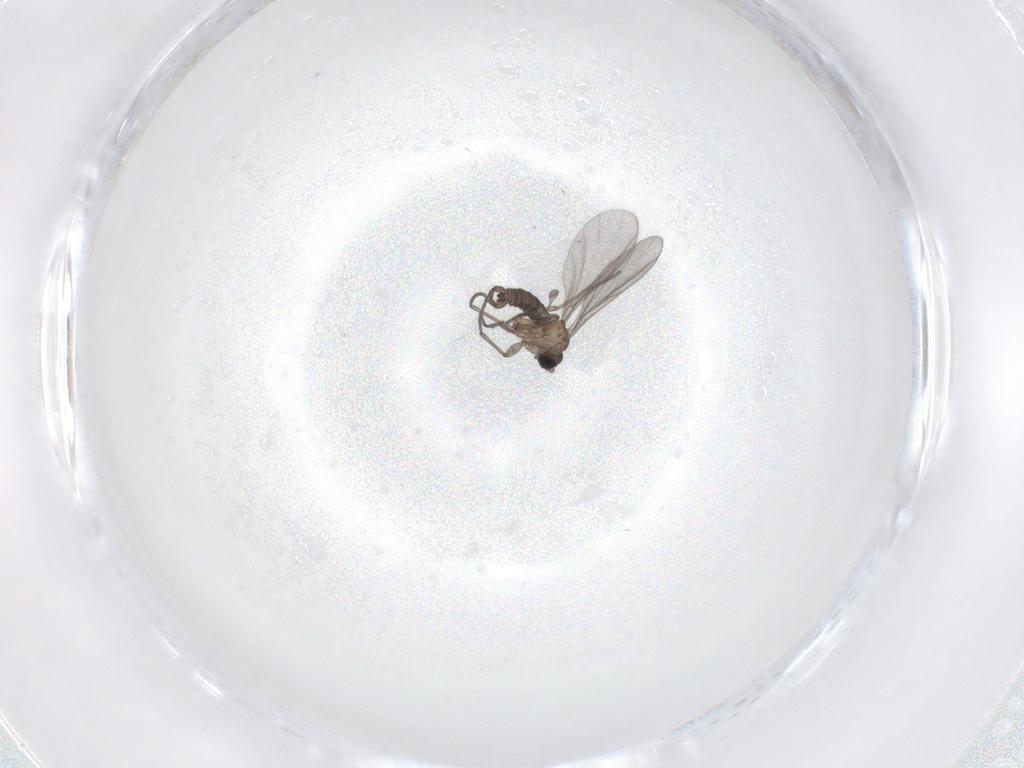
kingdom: Animalia
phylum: Arthropoda
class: Insecta
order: Diptera
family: Sciaridae
